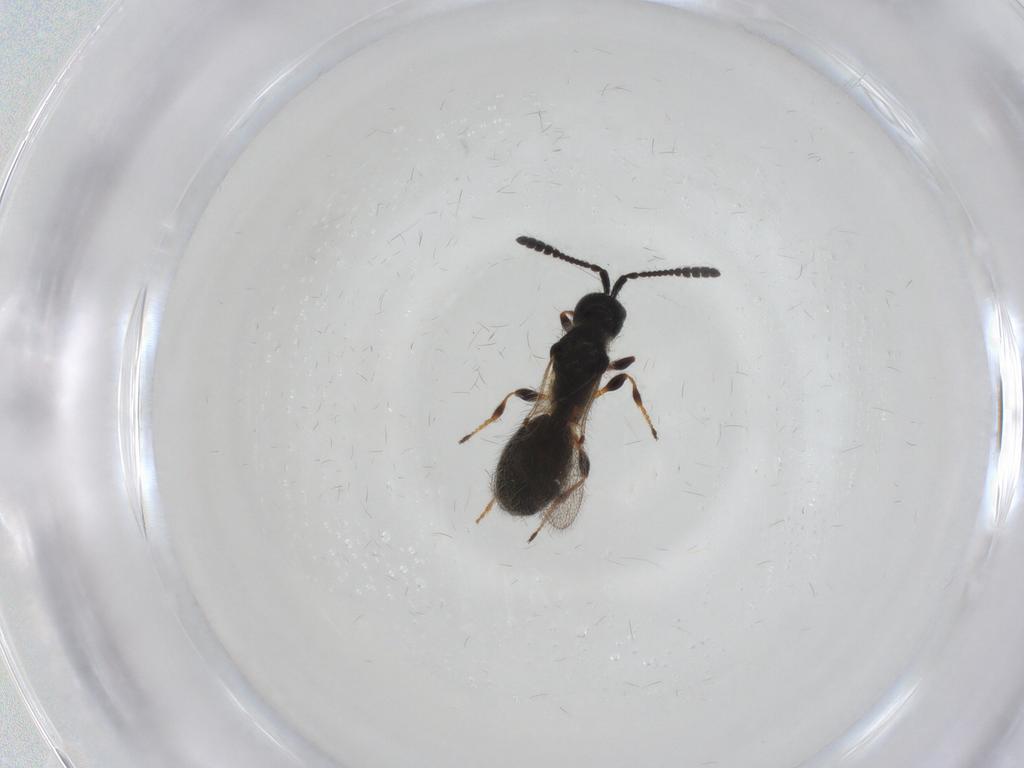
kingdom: Animalia
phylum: Arthropoda
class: Insecta
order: Hymenoptera
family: Diapriidae
